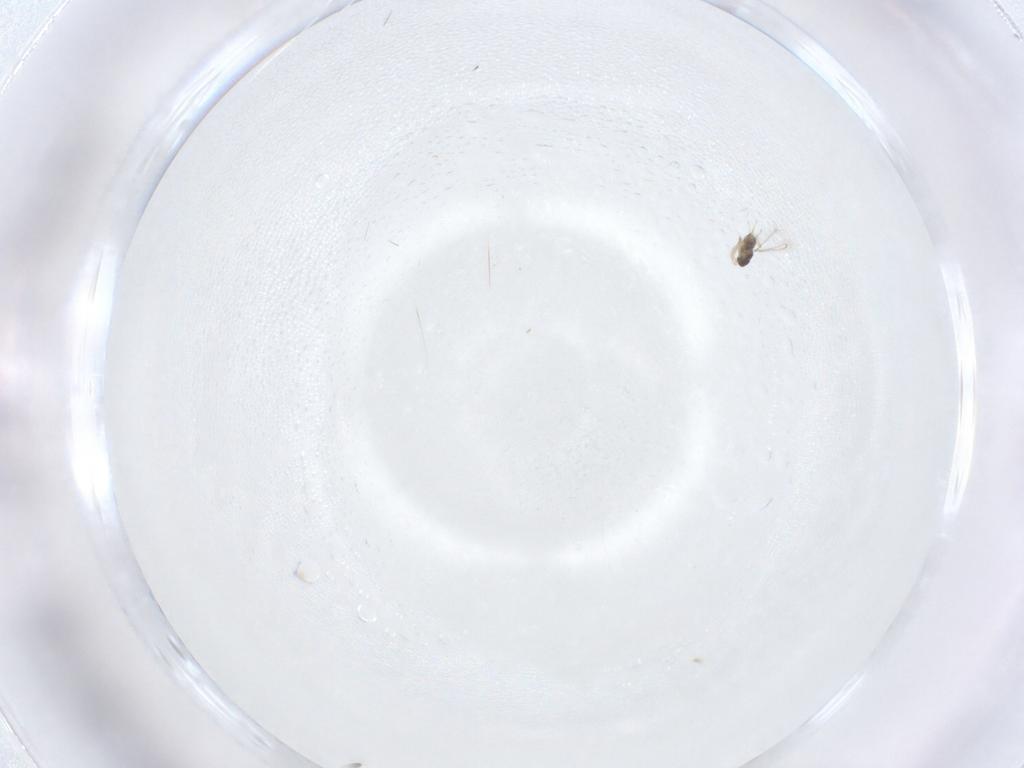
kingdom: Animalia
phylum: Arthropoda
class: Insecta
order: Hymenoptera
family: Mymaridae
